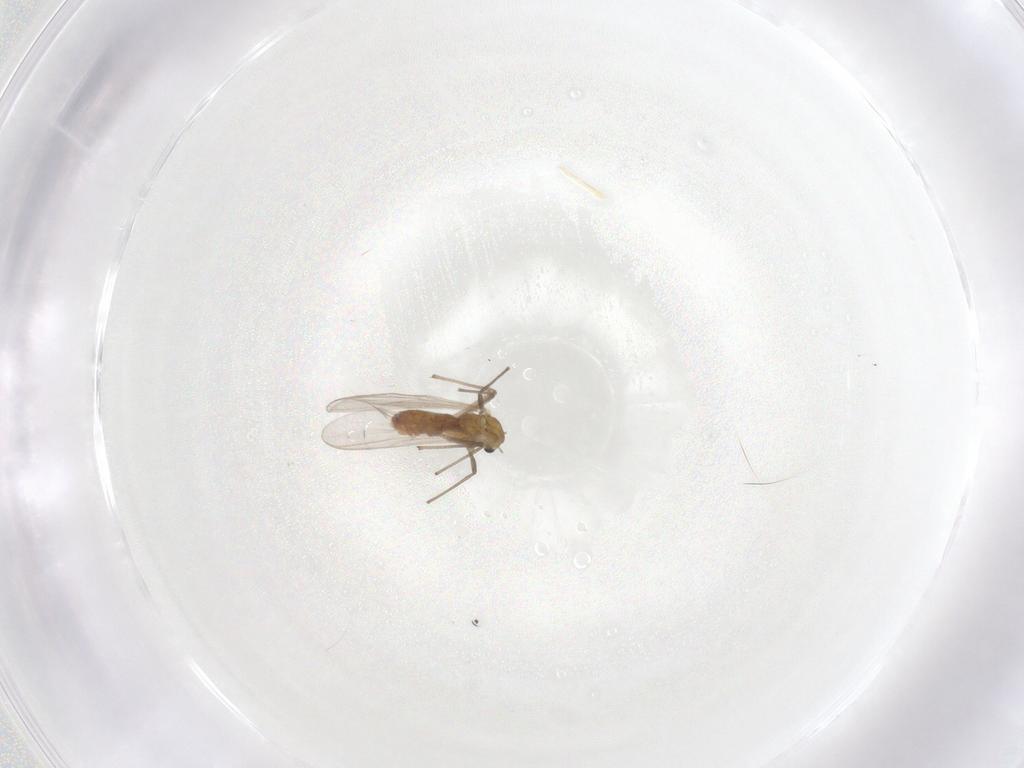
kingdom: Animalia
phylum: Arthropoda
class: Insecta
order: Diptera
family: Chironomidae
